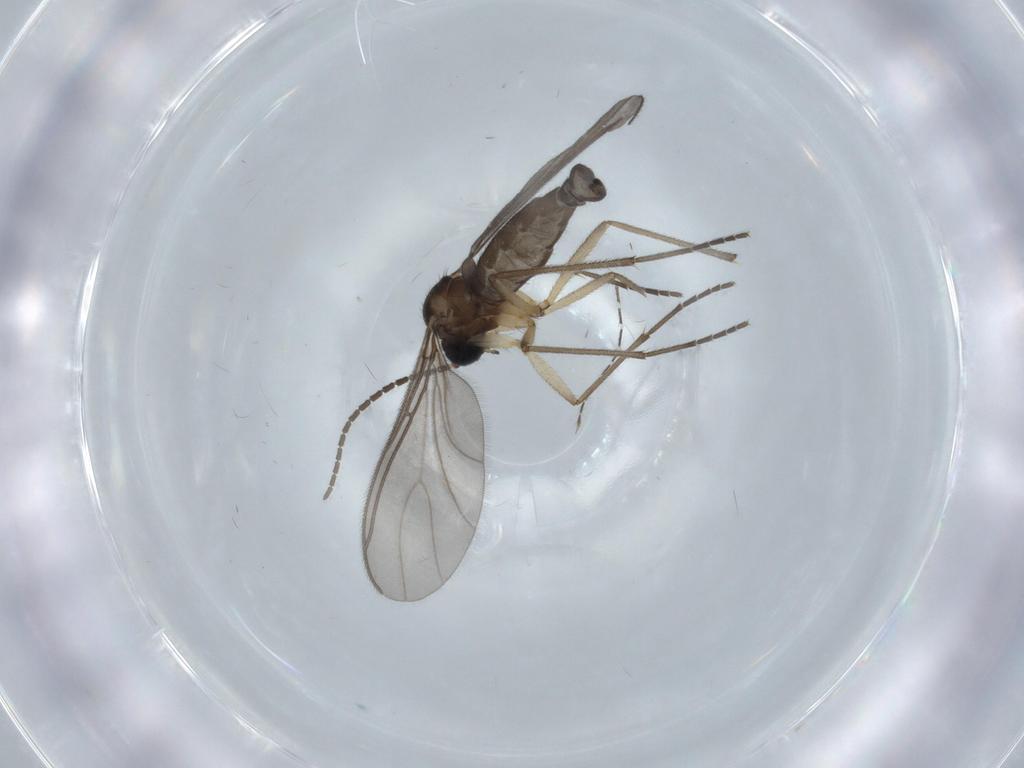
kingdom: Animalia
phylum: Arthropoda
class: Insecta
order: Diptera
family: Sciaridae
